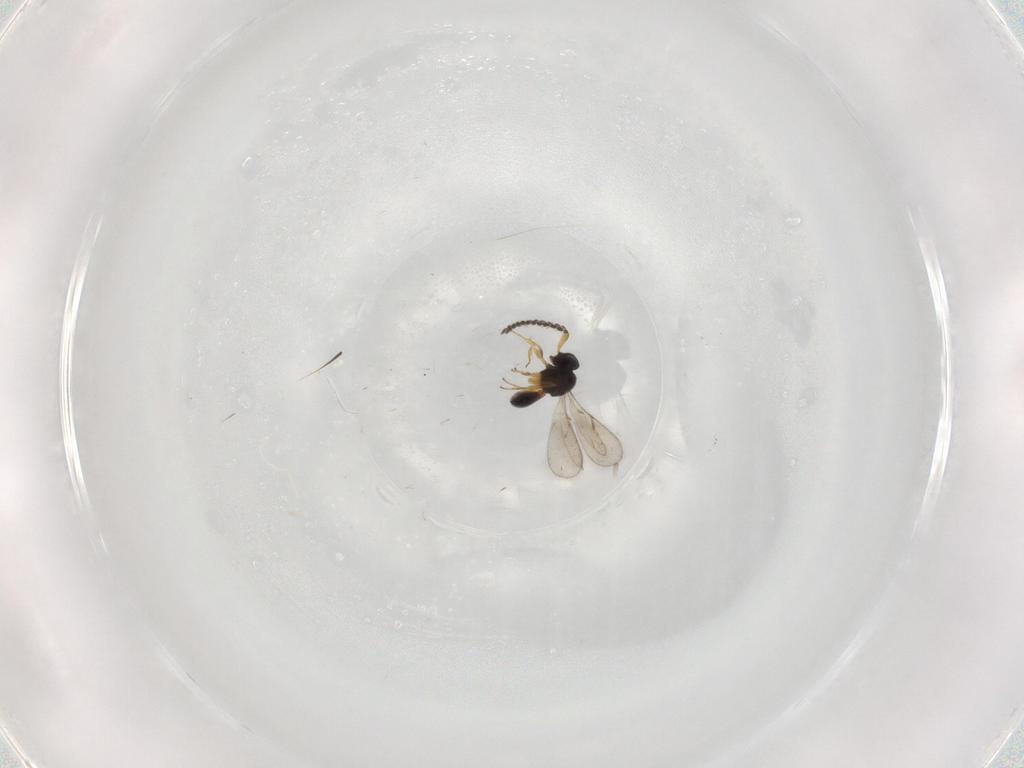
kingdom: Animalia
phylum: Arthropoda
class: Insecta
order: Hymenoptera
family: Scelionidae
